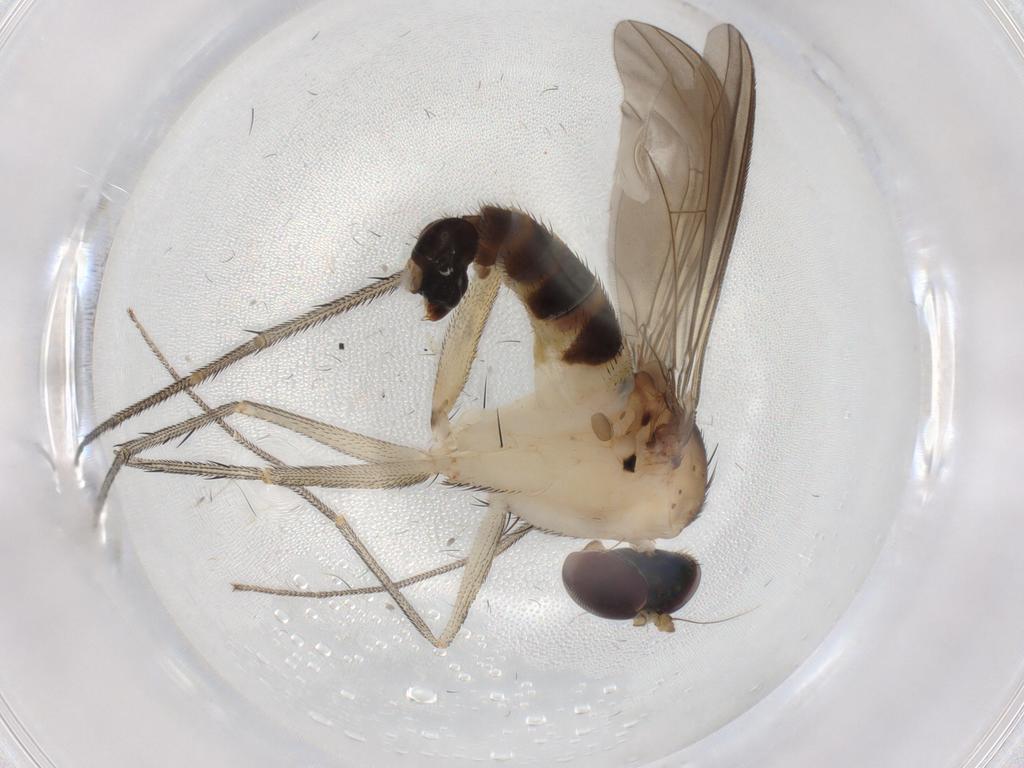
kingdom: Animalia
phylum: Arthropoda
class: Insecta
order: Diptera
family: Dolichopodidae
